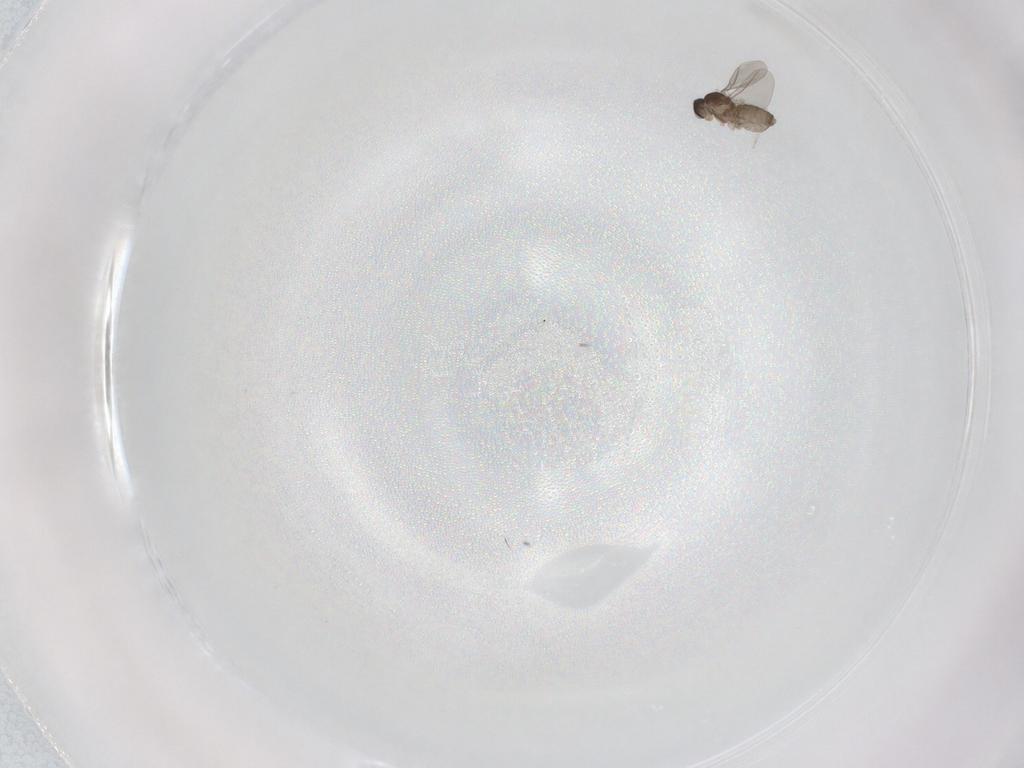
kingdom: Animalia
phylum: Arthropoda
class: Insecta
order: Diptera
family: Cecidomyiidae
